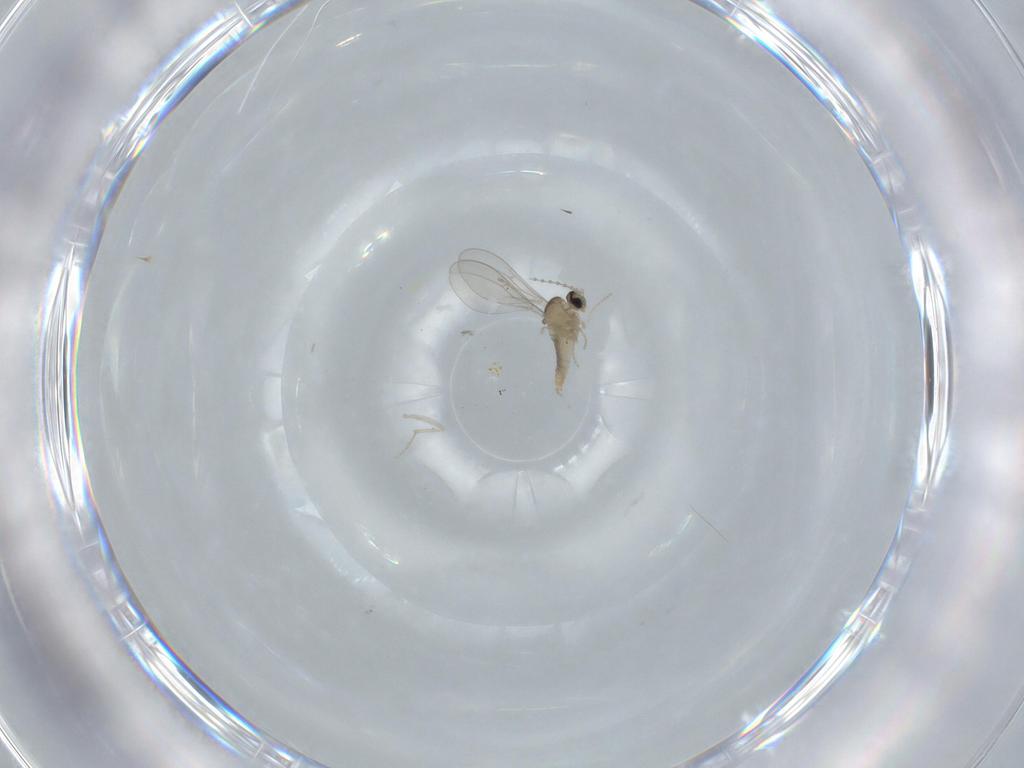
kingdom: Animalia
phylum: Arthropoda
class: Insecta
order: Diptera
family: Cecidomyiidae
